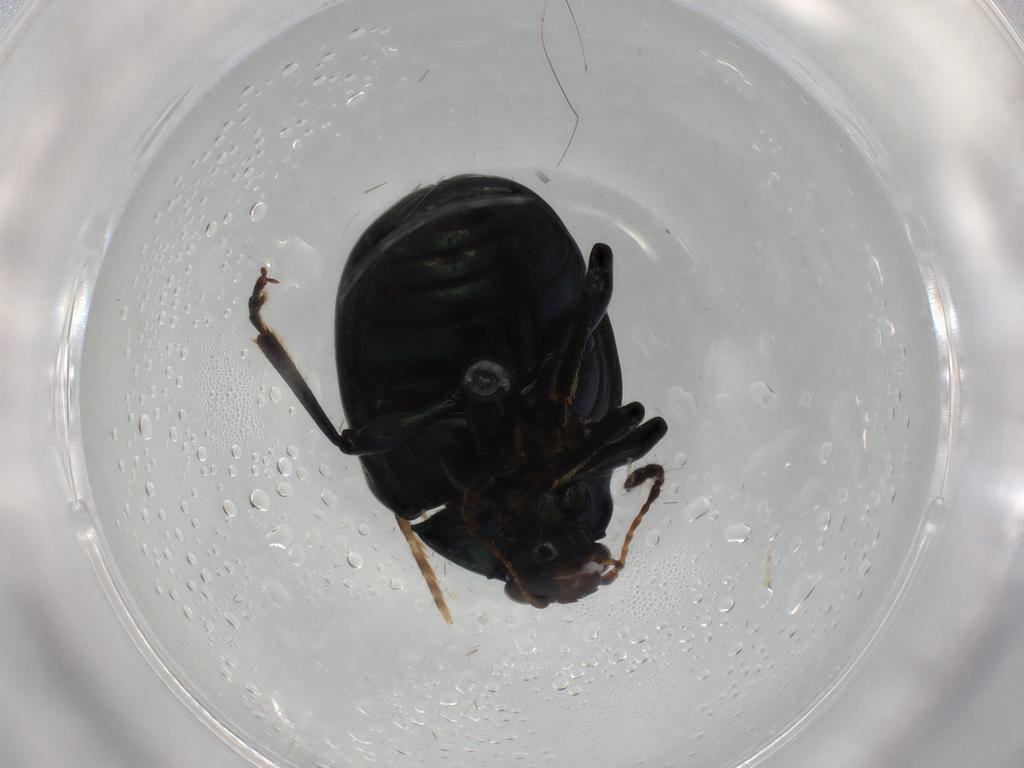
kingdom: Animalia
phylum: Arthropoda
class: Insecta
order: Coleoptera
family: Chrysomelidae
